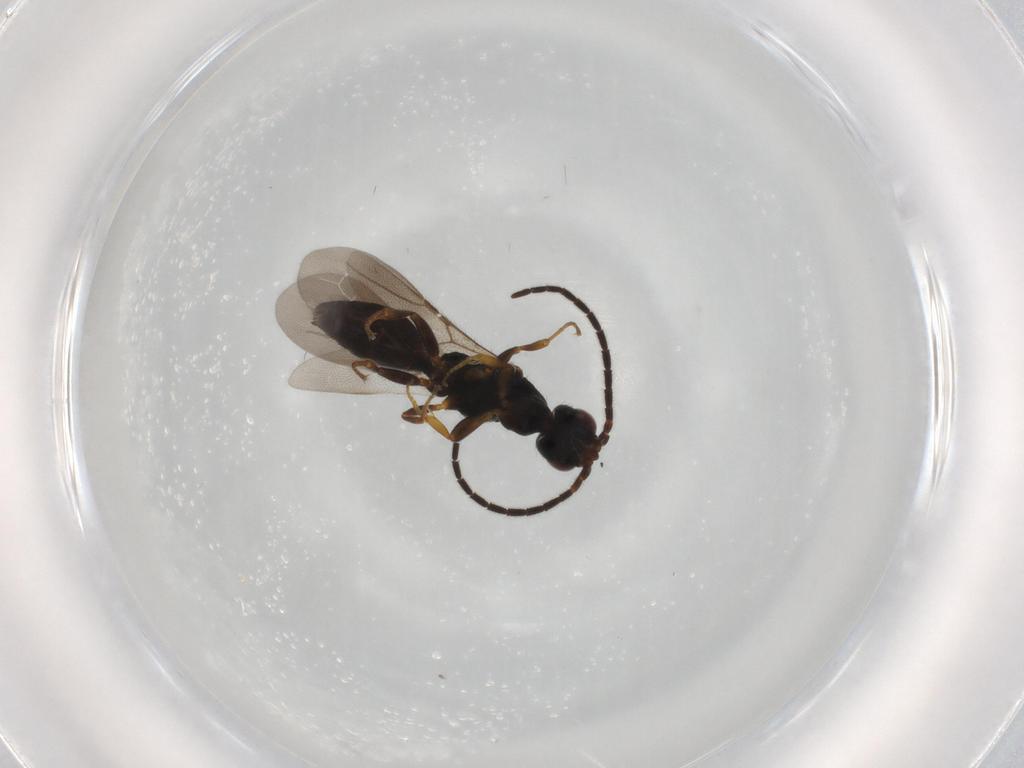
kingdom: Animalia
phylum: Arthropoda
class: Insecta
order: Hymenoptera
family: Bethylidae
